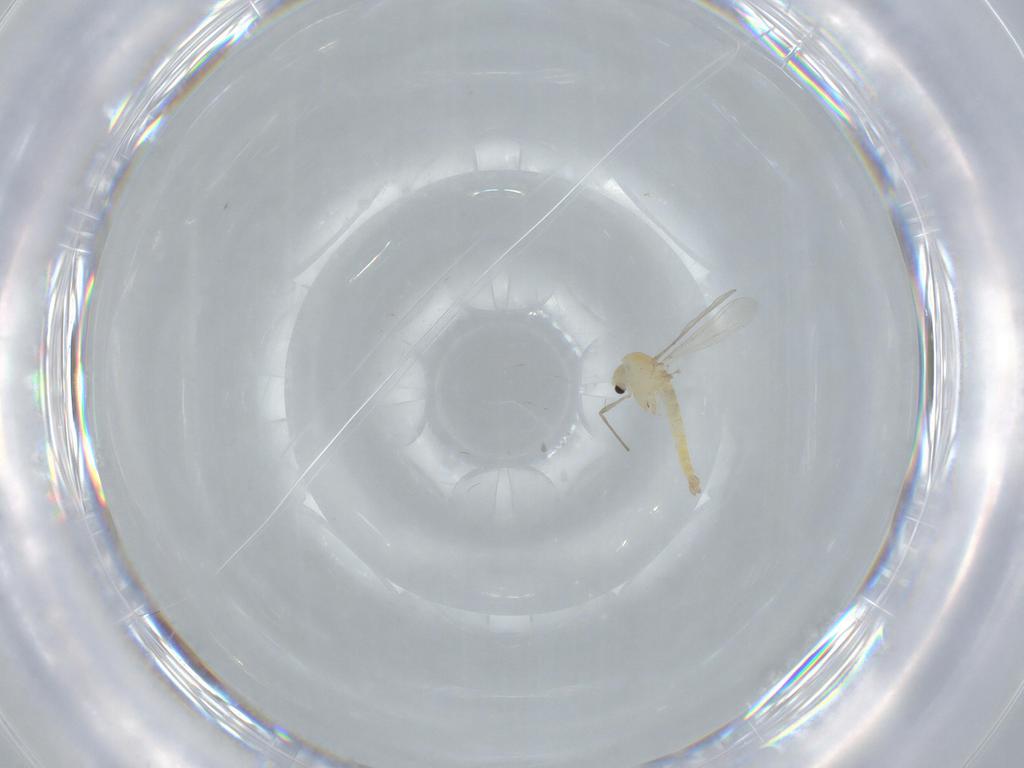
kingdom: Animalia
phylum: Arthropoda
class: Insecta
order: Diptera
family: Chironomidae
